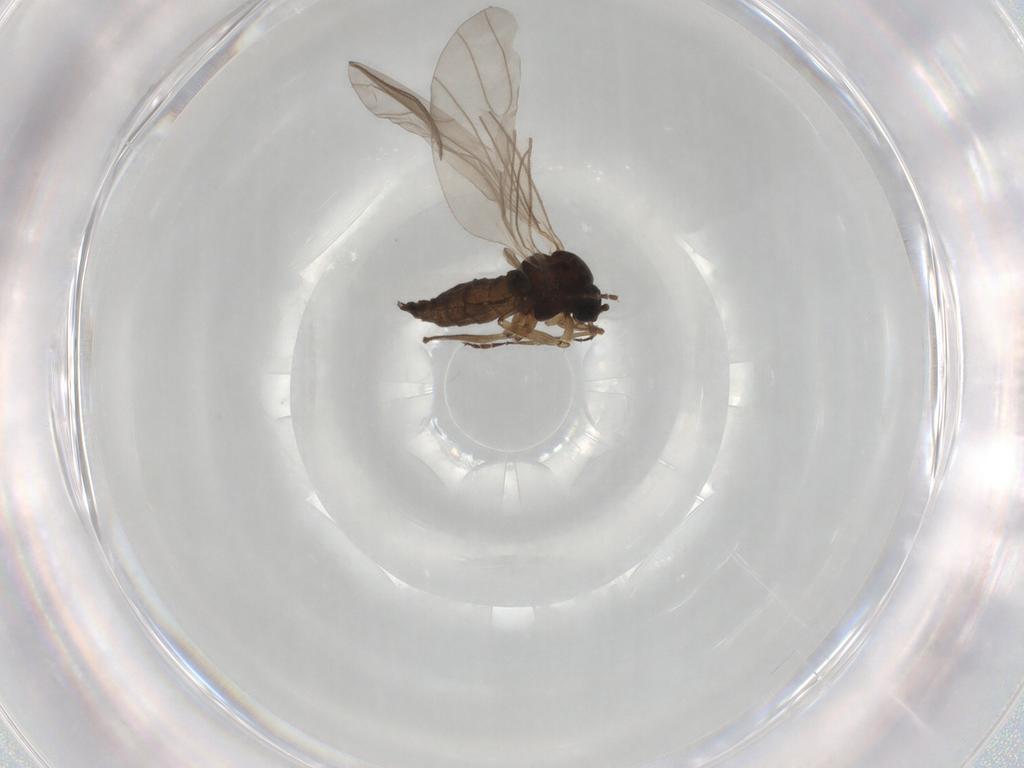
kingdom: Animalia
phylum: Arthropoda
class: Insecta
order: Diptera
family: Sciaridae
